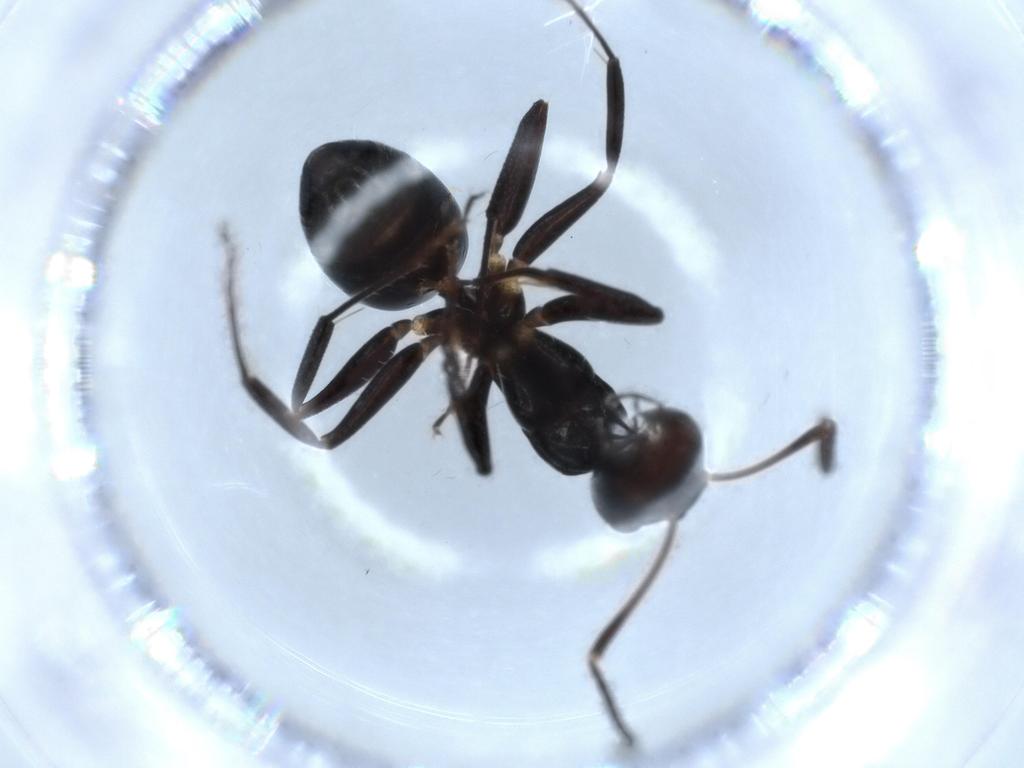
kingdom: Animalia
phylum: Arthropoda
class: Insecta
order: Hymenoptera
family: Formicidae
